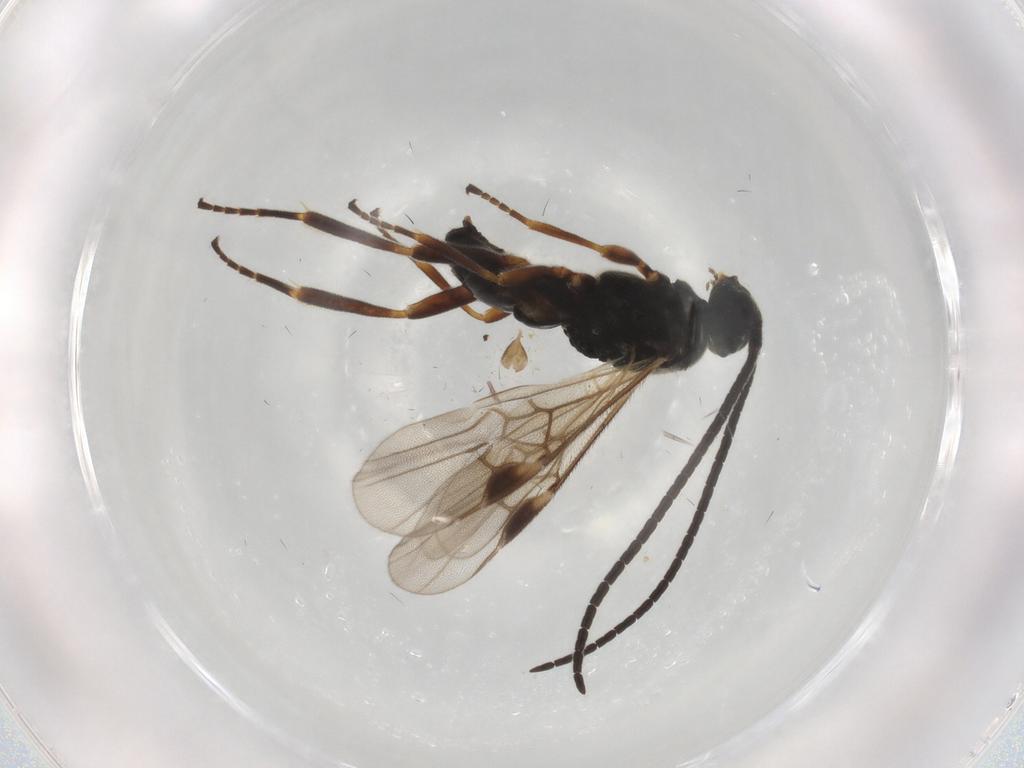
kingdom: Animalia
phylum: Arthropoda
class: Insecta
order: Hymenoptera
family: Braconidae
